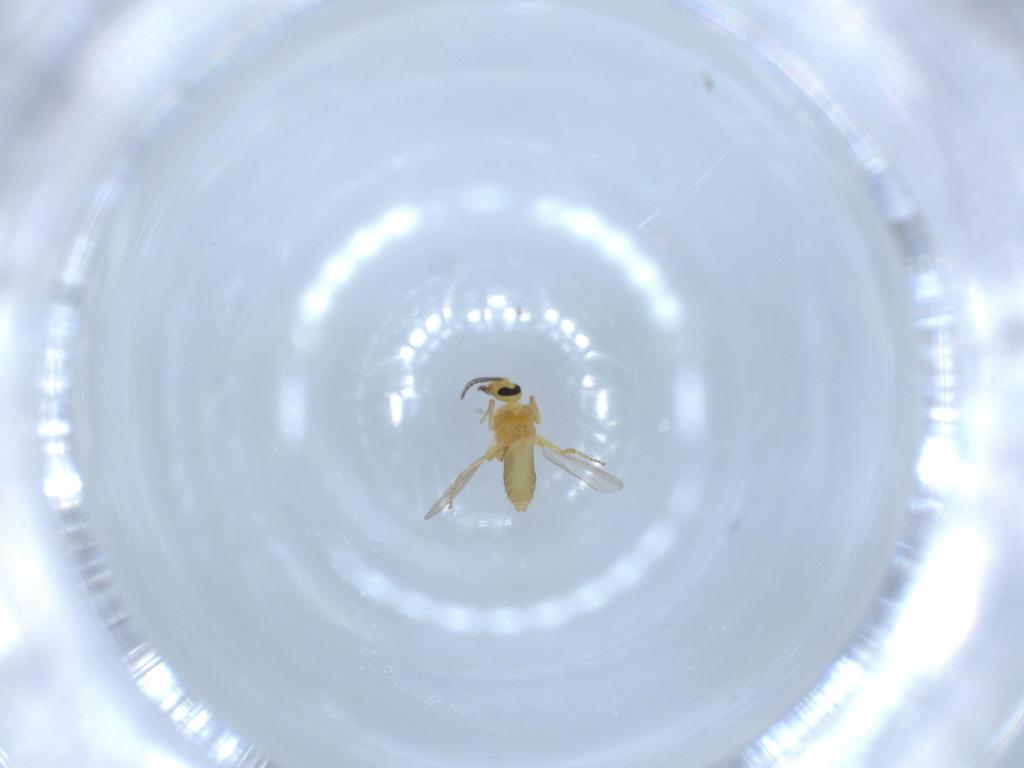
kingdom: Animalia
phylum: Arthropoda
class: Insecta
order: Diptera
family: Ceratopogonidae
